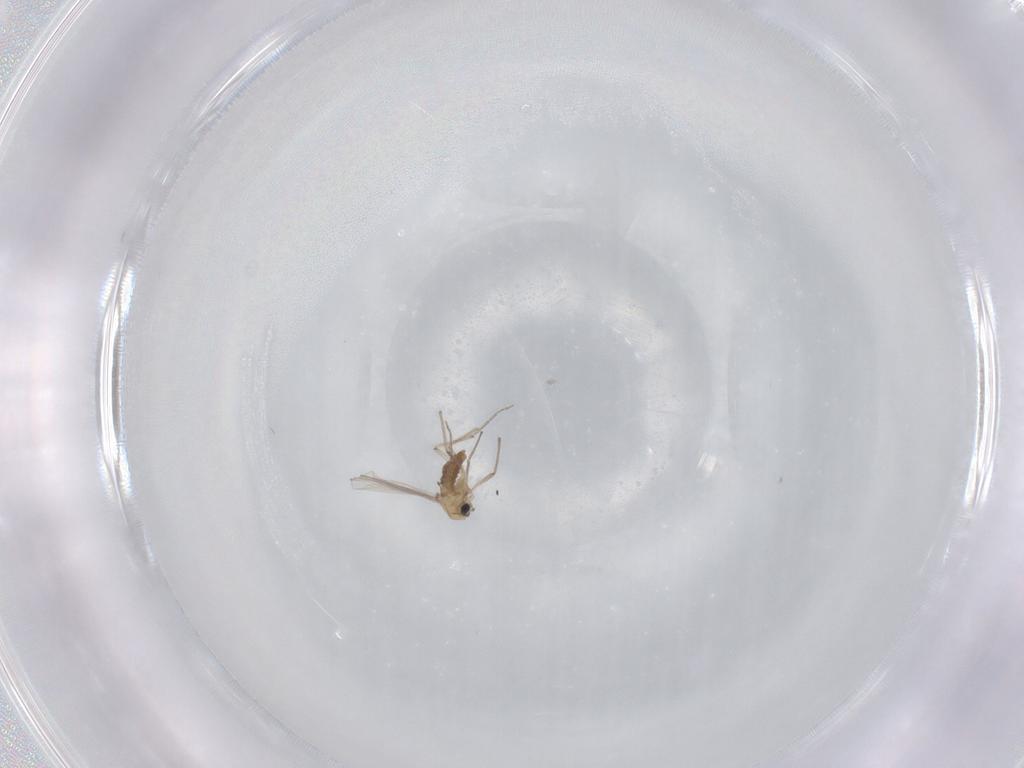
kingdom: Animalia
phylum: Arthropoda
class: Insecta
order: Diptera
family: Chironomidae
